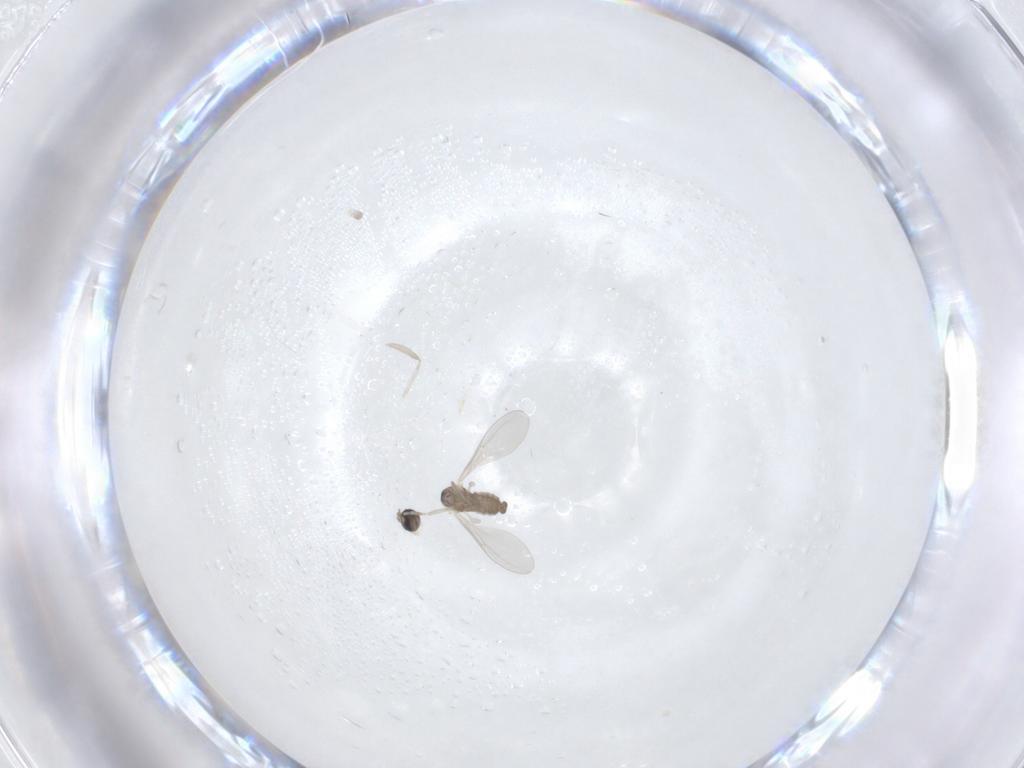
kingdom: Animalia
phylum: Arthropoda
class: Insecta
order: Diptera
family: Cecidomyiidae
